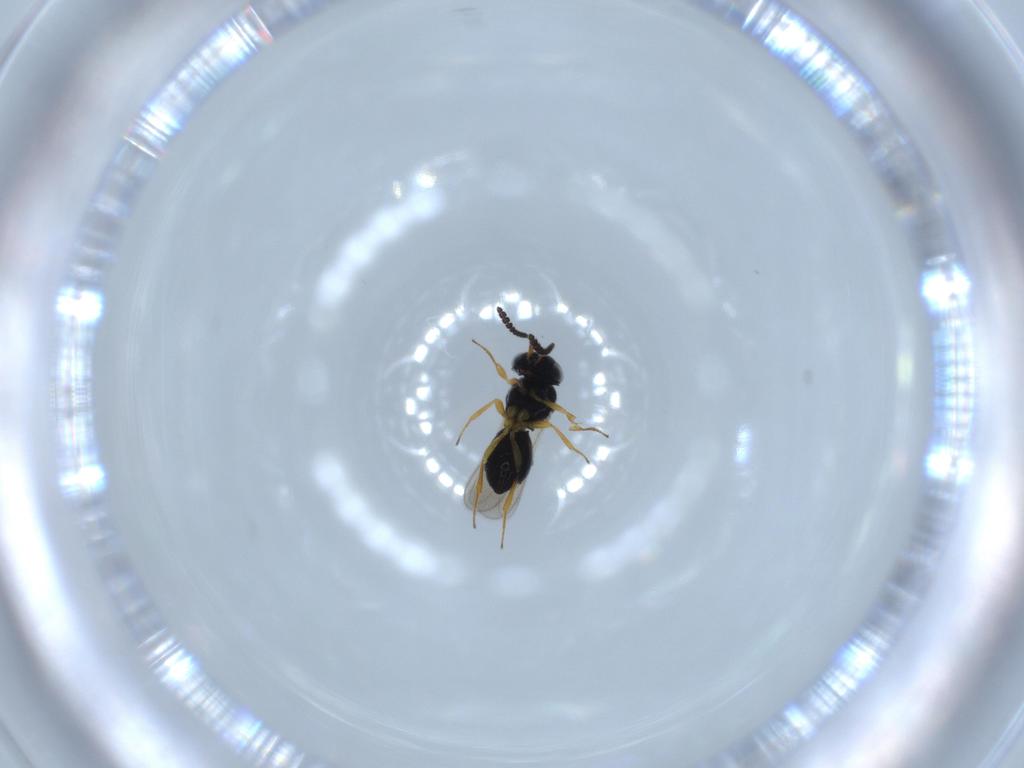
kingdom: Animalia
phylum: Arthropoda
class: Insecta
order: Hymenoptera
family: Scelionidae
